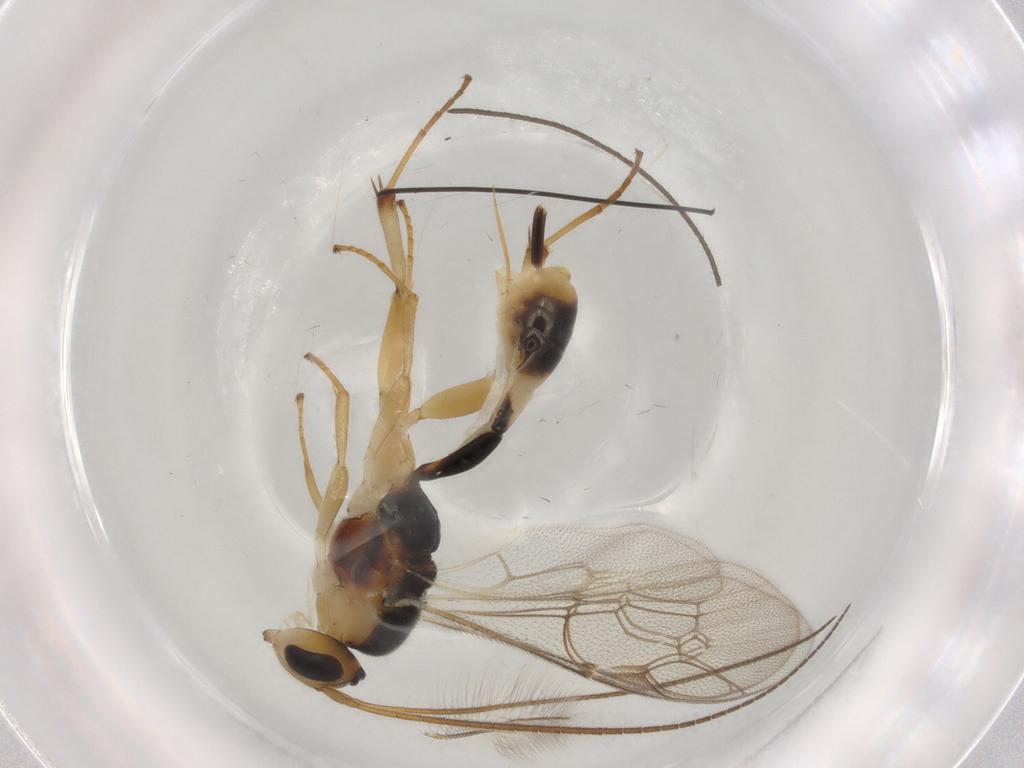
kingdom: Animalia
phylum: Arthropoda
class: Insecta
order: Hymenoptera
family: Ichneumonidae
